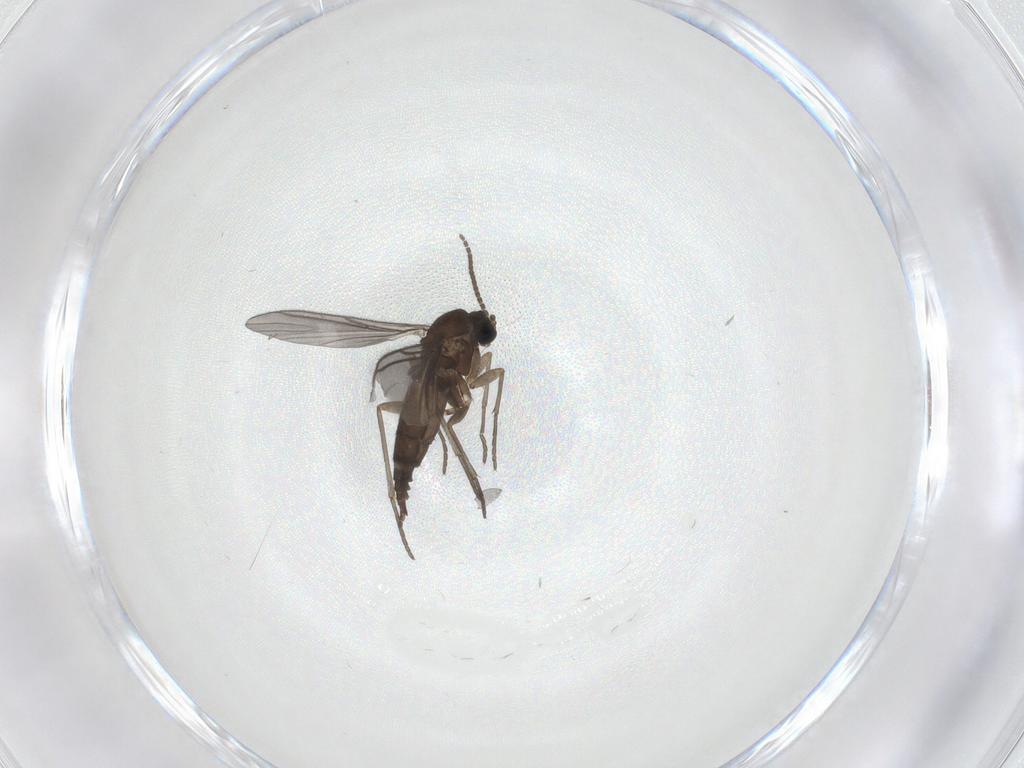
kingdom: Animalia
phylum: Arthropoda
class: Insecta
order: Diptera
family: Sciaridae
